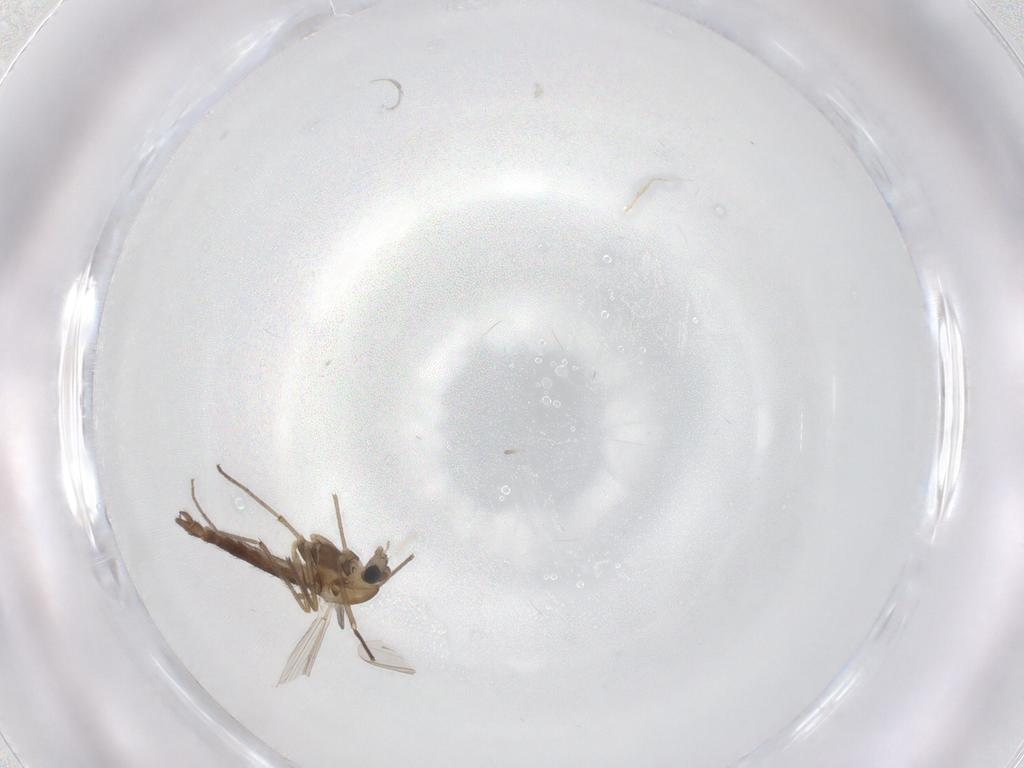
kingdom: Animalia
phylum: Arthropoda
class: Insecta
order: Diptera
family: Chironomidae
